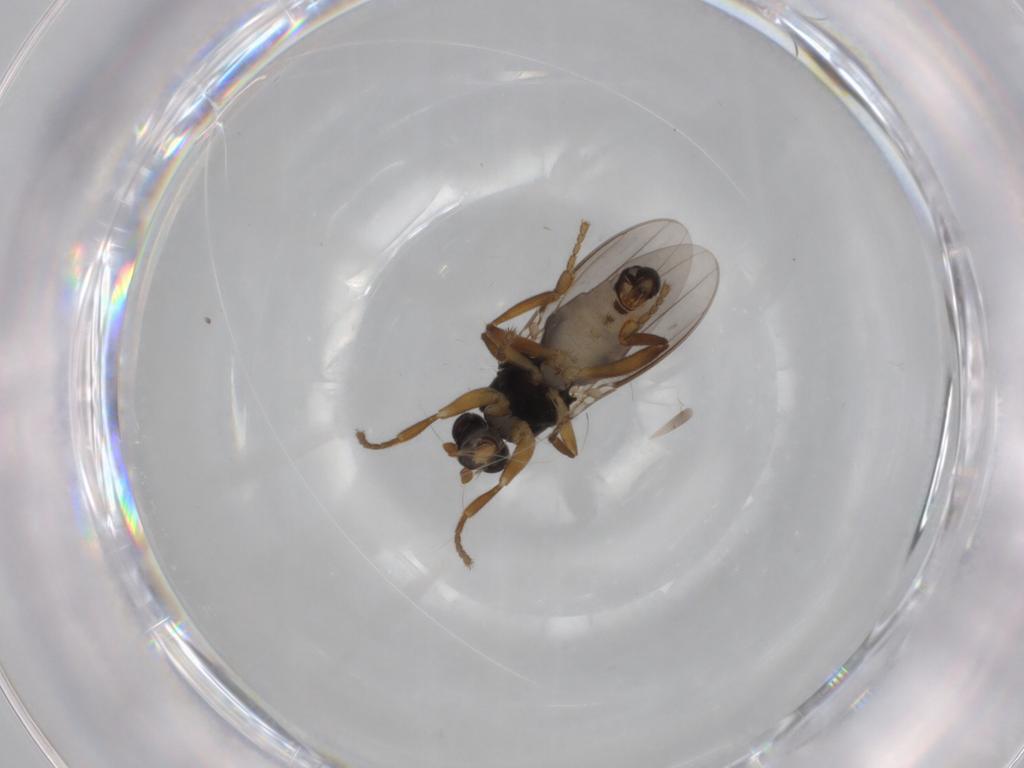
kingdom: Animalia
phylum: Arthropoda
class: Insecta
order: Diptera
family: Sphaeroceridae
